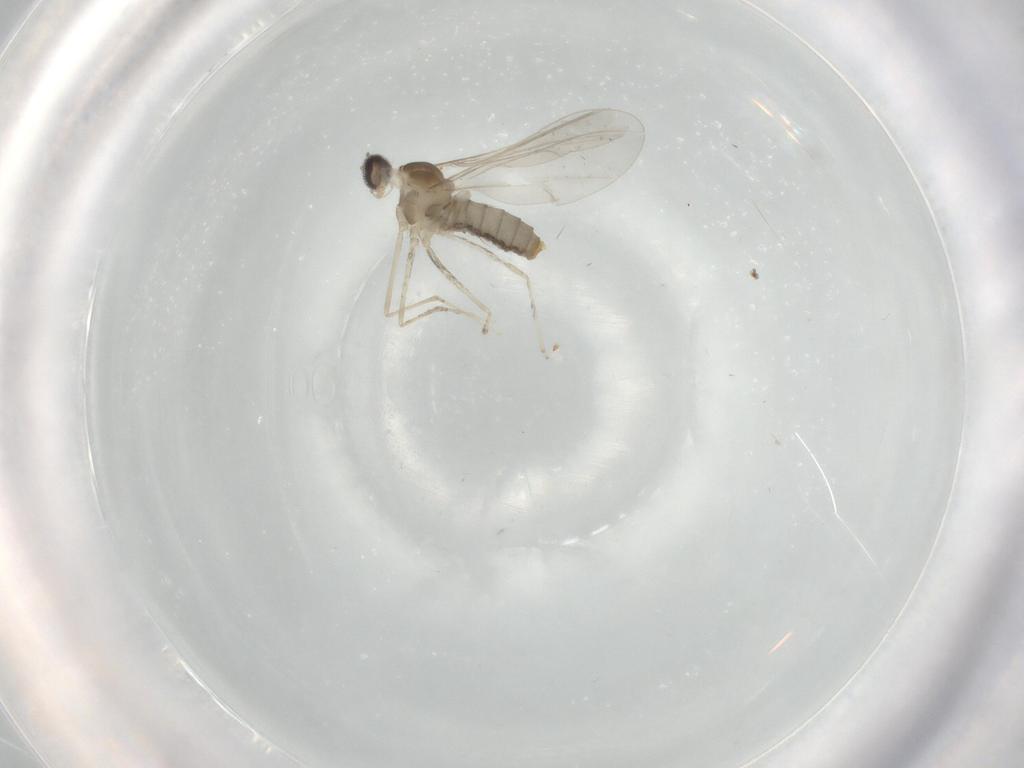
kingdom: Animalia
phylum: Arthropoda
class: Insecta
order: Diptera
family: Cecidomyiidae
